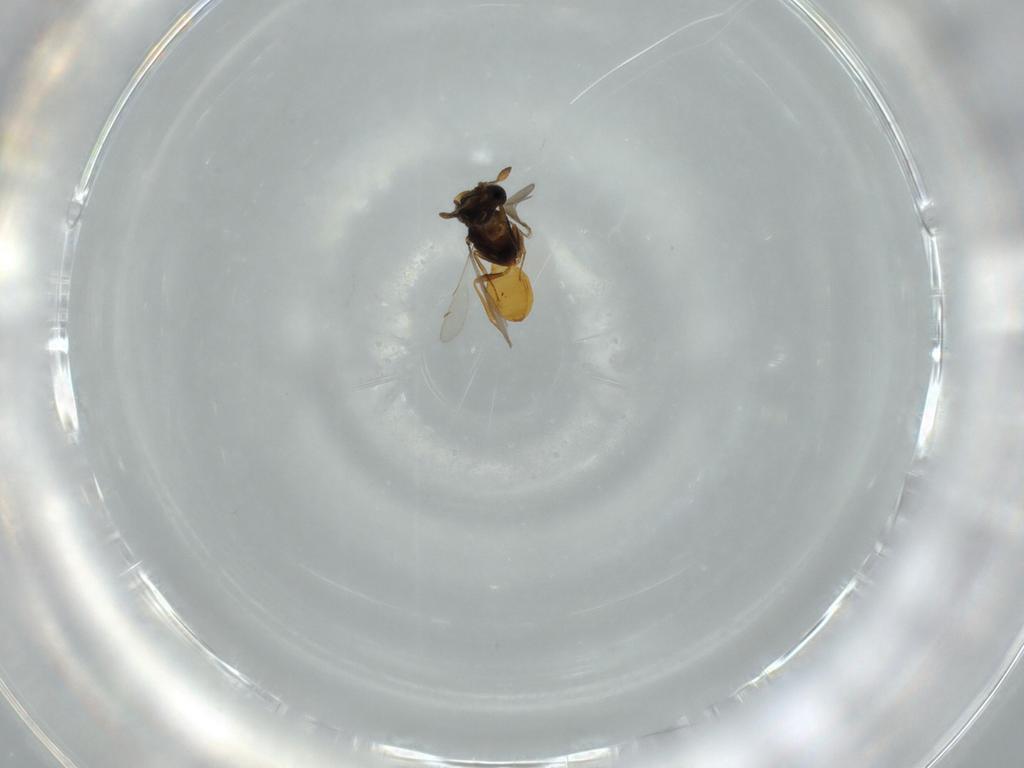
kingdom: Animalia
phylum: Arthropoda
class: Insecta
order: Hymenoptera
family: Scelionidae
